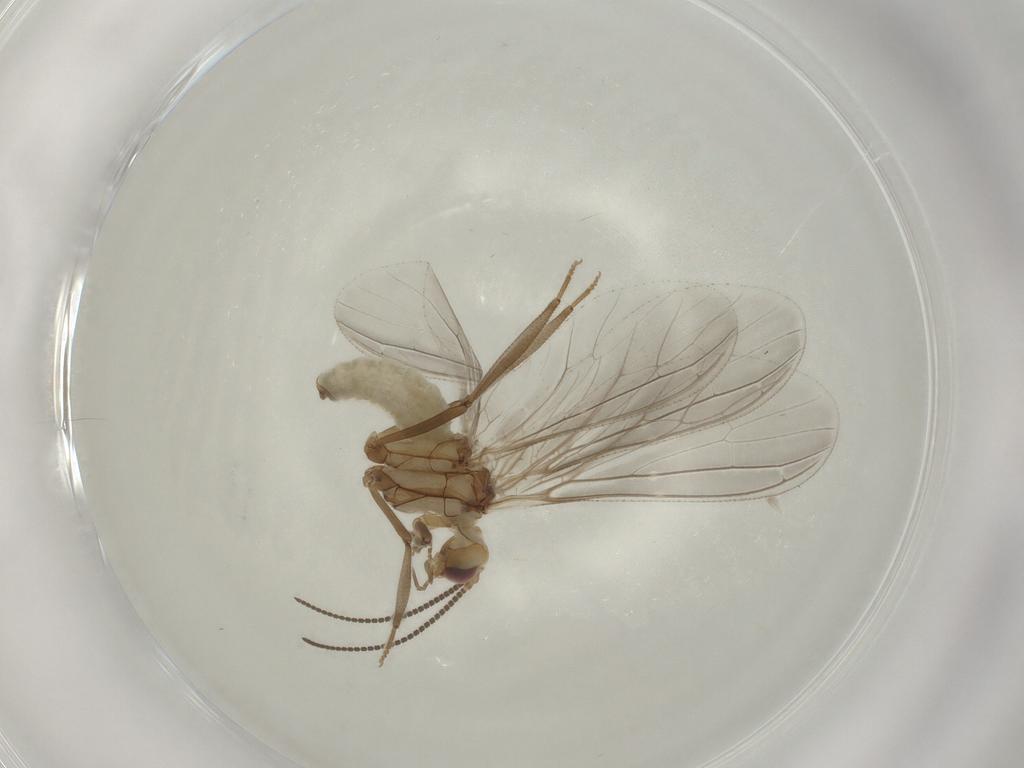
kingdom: Animalia
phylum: Arthropoda
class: Insecta
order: Neuroptera
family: Coniopterygidae
